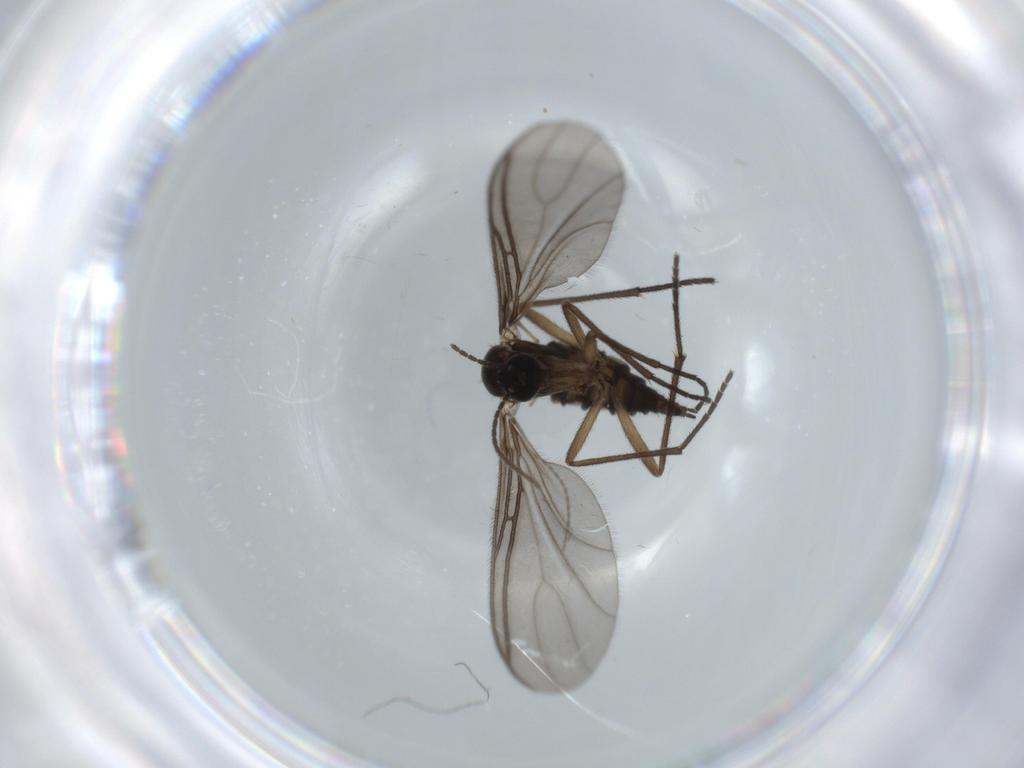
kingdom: Animalia
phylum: Arthropoda
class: Insecta
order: Diptera
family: Sciaridae
